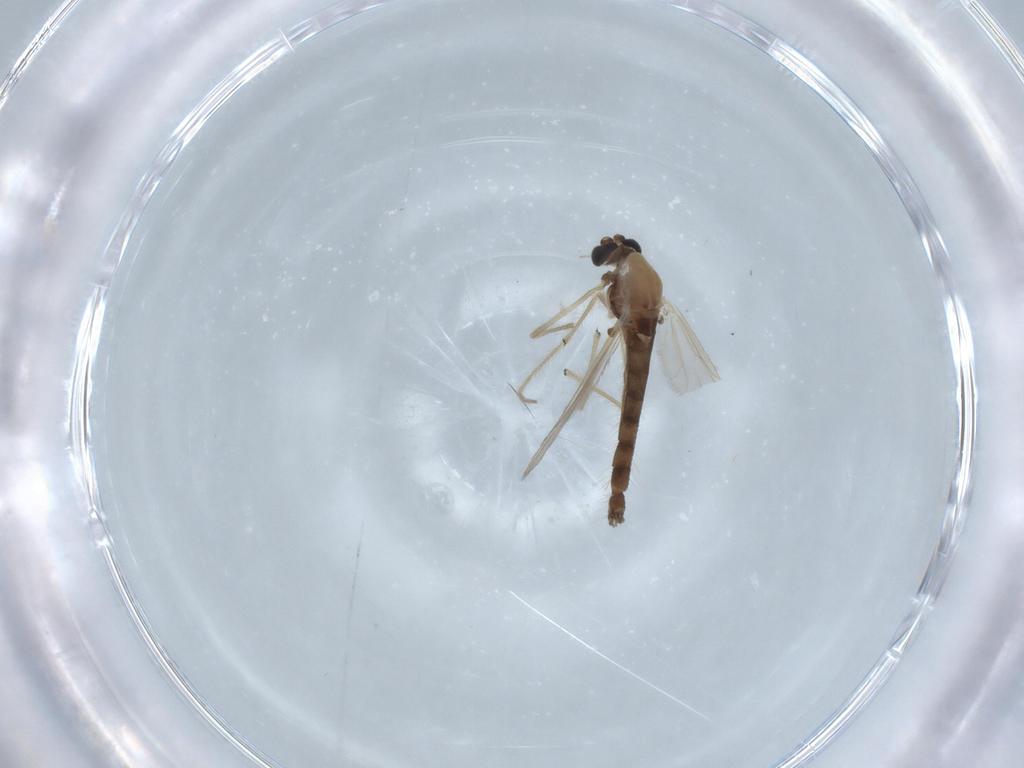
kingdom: Animalia
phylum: Arthropoda
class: Insecta
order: Diptera
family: Chironomidae
